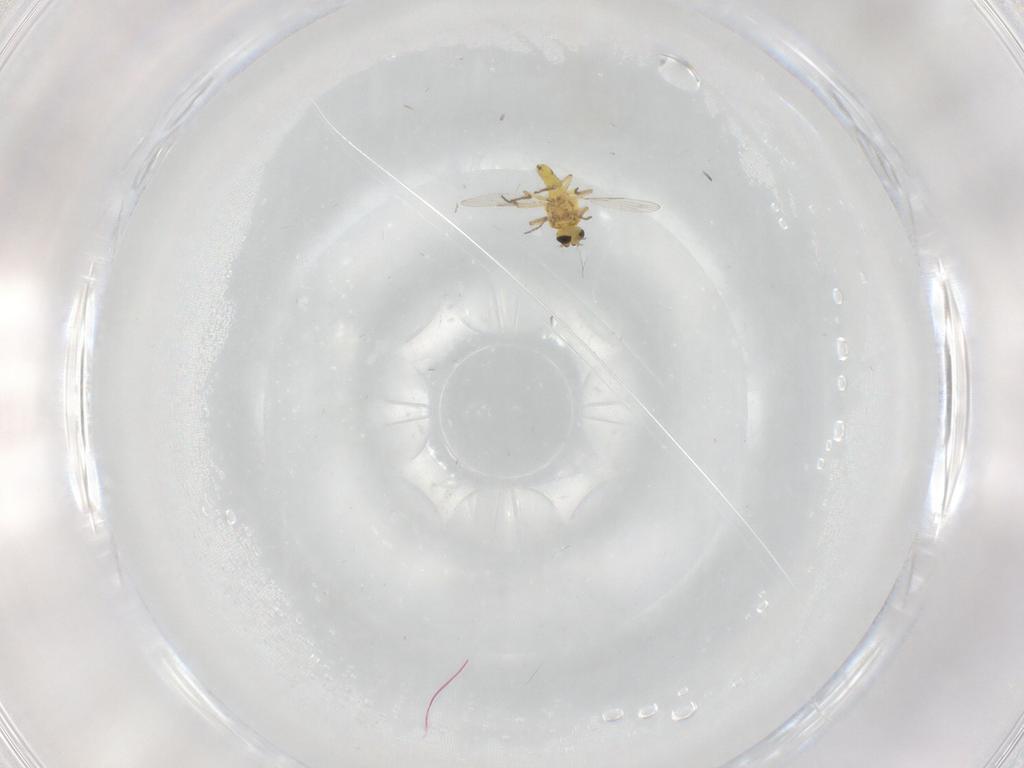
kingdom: Animalia
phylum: Arthropoda
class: Insecta
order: Diptera
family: Ceratopogonidae
